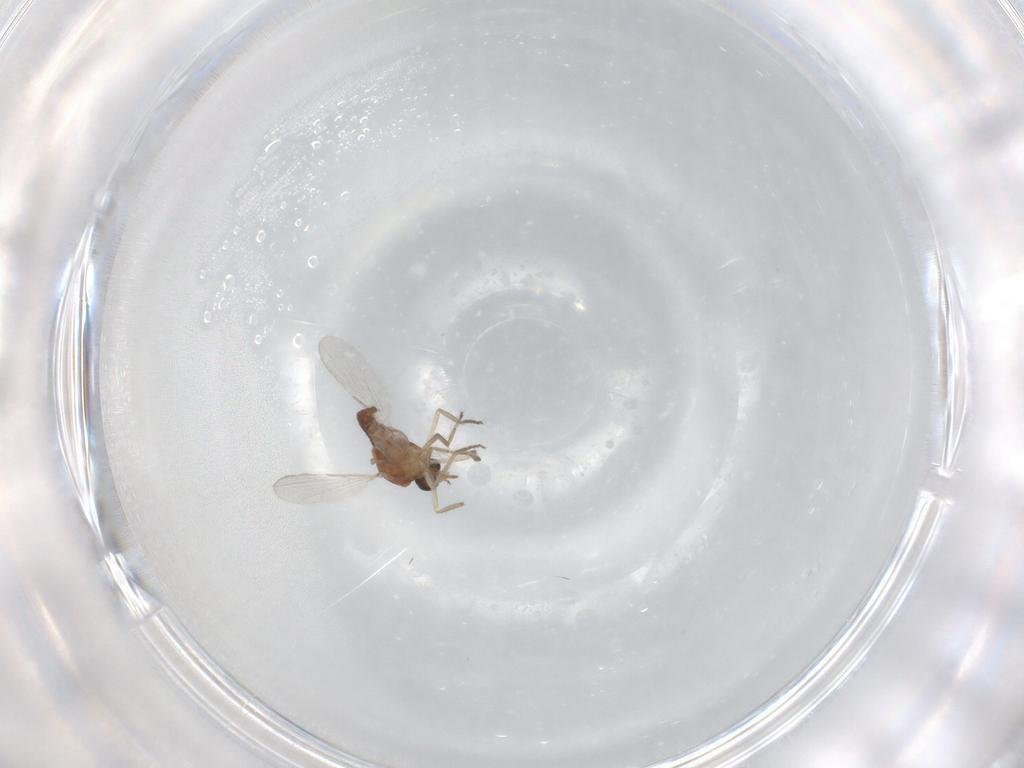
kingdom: Animalia
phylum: Arthropoda
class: Insecta
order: Diptera
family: Ceratopogonidae
